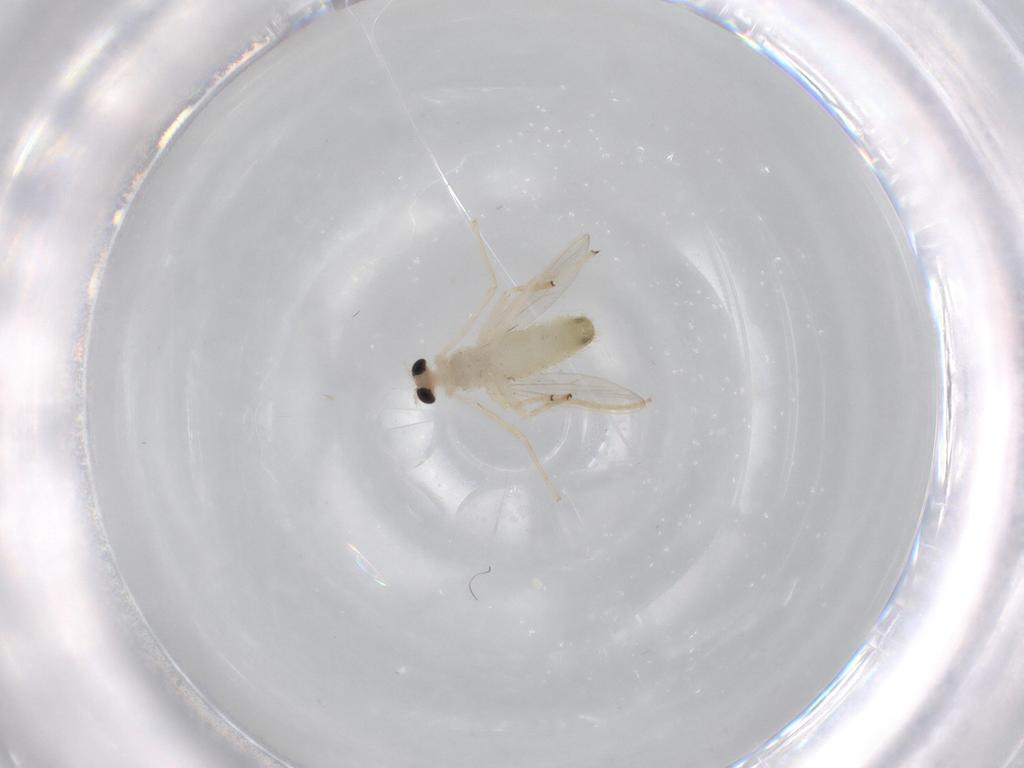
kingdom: Animalia
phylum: Arthropoda
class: Insecta
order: Diptera
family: Chironomidae
